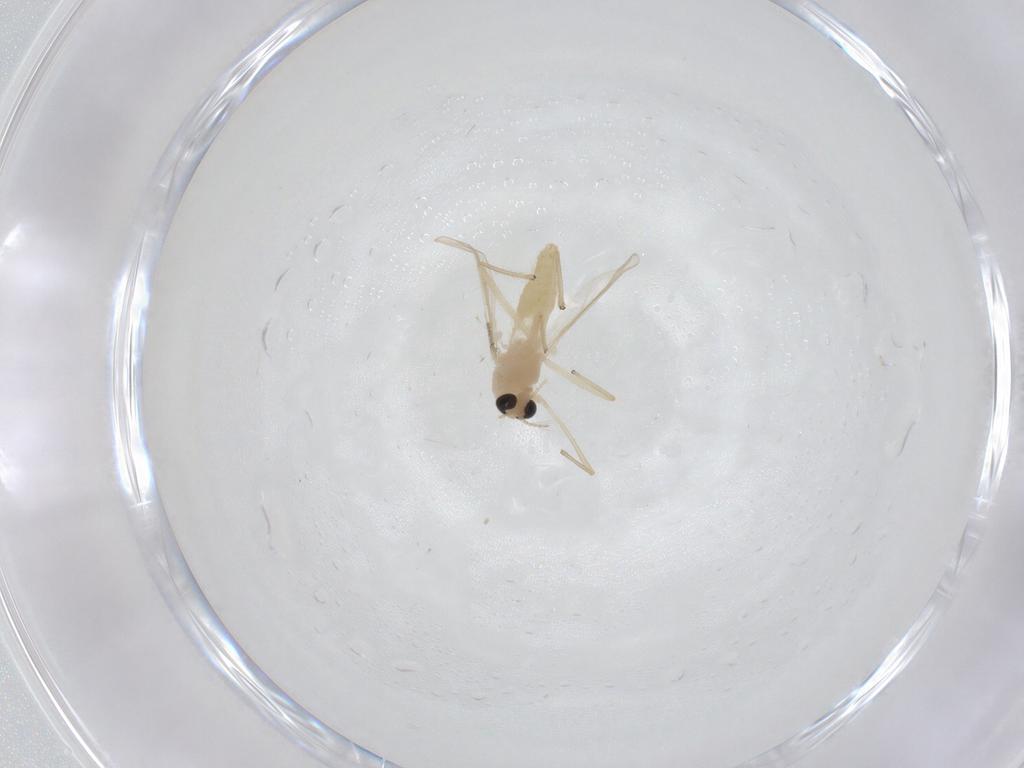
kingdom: Animalia
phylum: Arthropoda
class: Insecta
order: Diptera
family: Chironomidae
